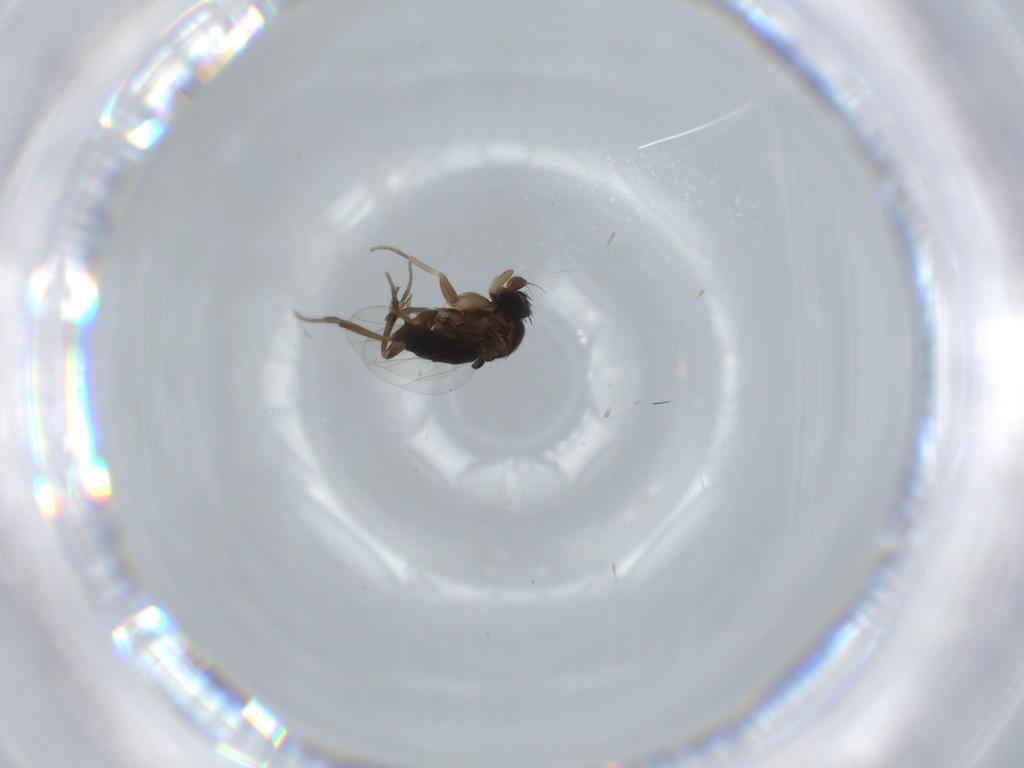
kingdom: Animalia
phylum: Arthropoda
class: Insecta
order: Diptera
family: Phoridae
